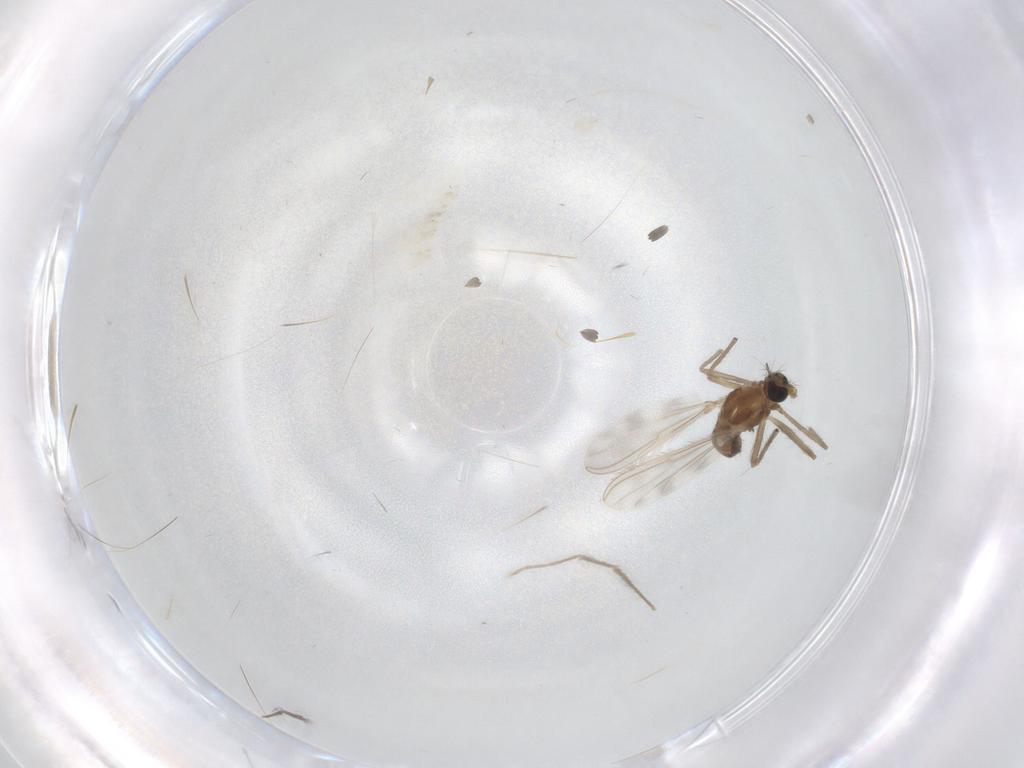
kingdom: Animalia
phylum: Arthropoda
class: Insecta
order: Diptera
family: Chironomidae
